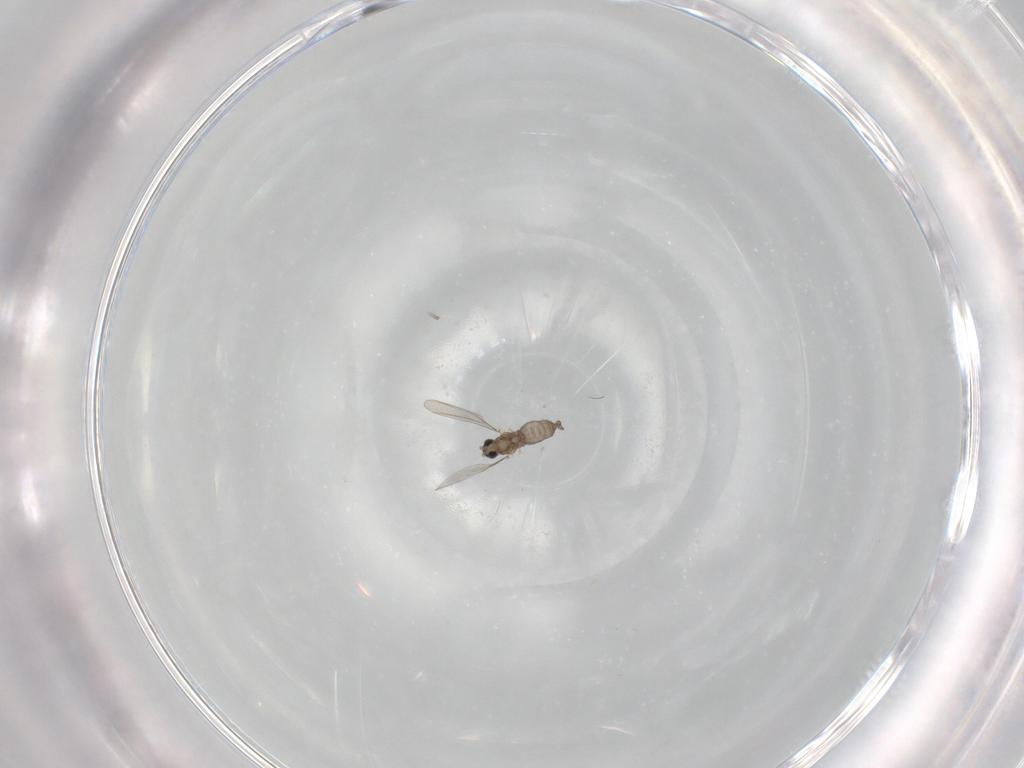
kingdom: Animalia
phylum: Arthropoda
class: Insecta
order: Diptera
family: Cecidomyiidae
